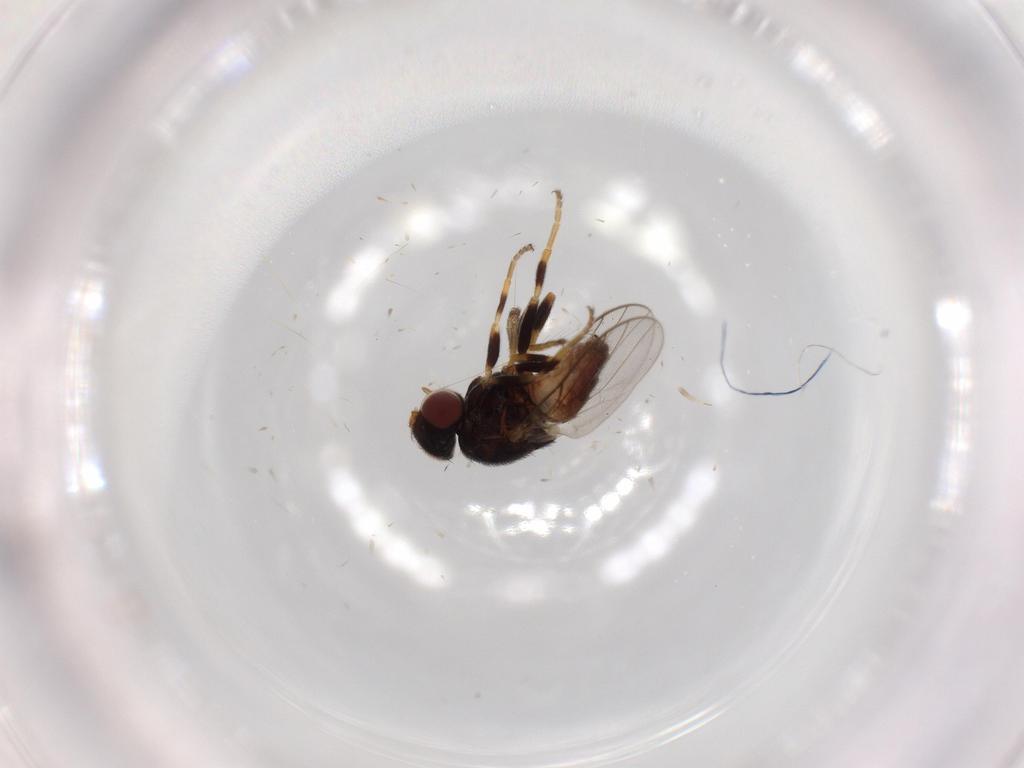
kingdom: Animalia
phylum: Arthropoda
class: Insecta
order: Diptera
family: Chloropidae
